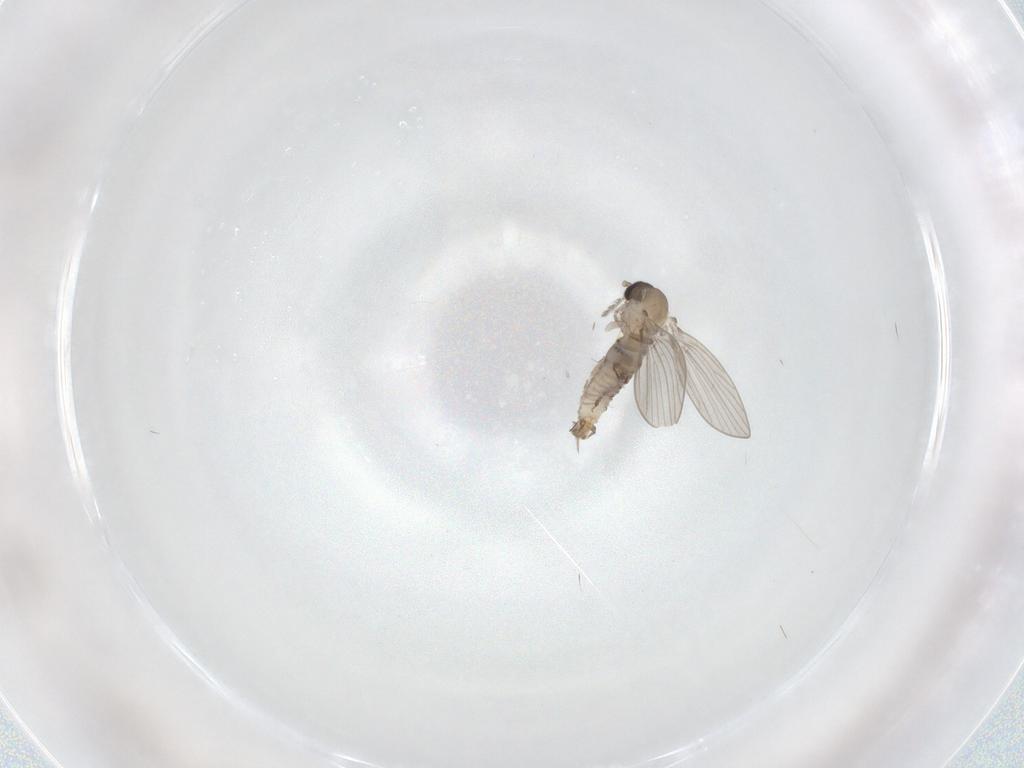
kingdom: Animalia
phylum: Arthropoda
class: Insecta
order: Diptera
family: Psychodidae
